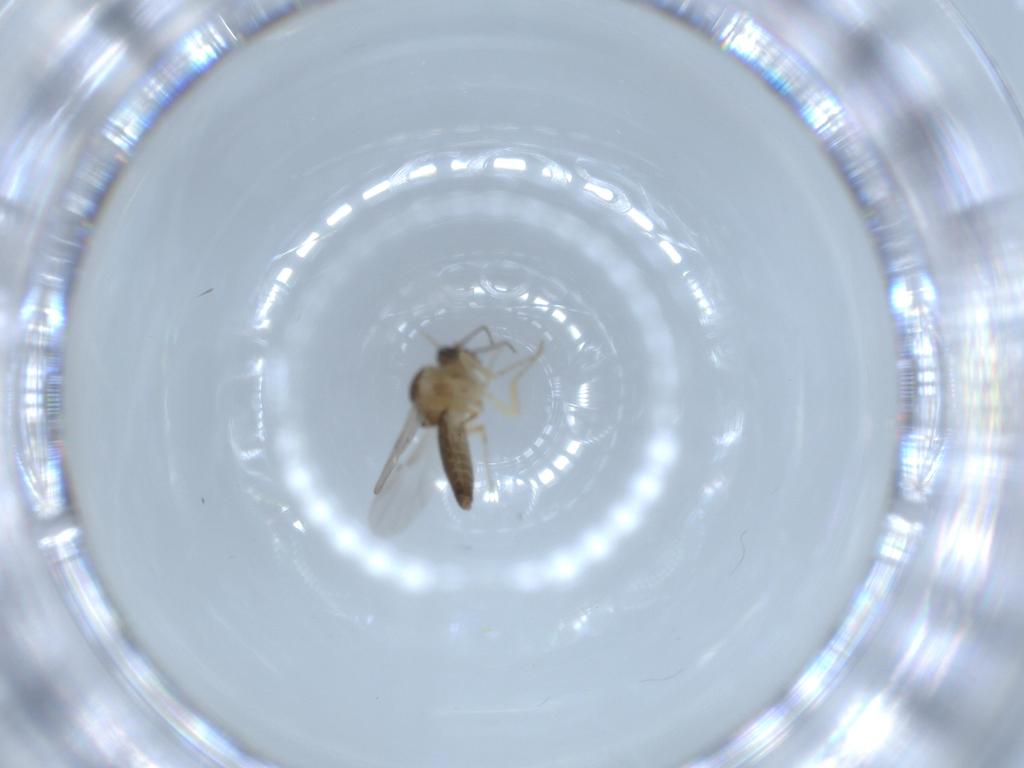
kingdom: Animalia
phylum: Arthropoda
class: Insecta
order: Diptera
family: Ceratopogonidae
